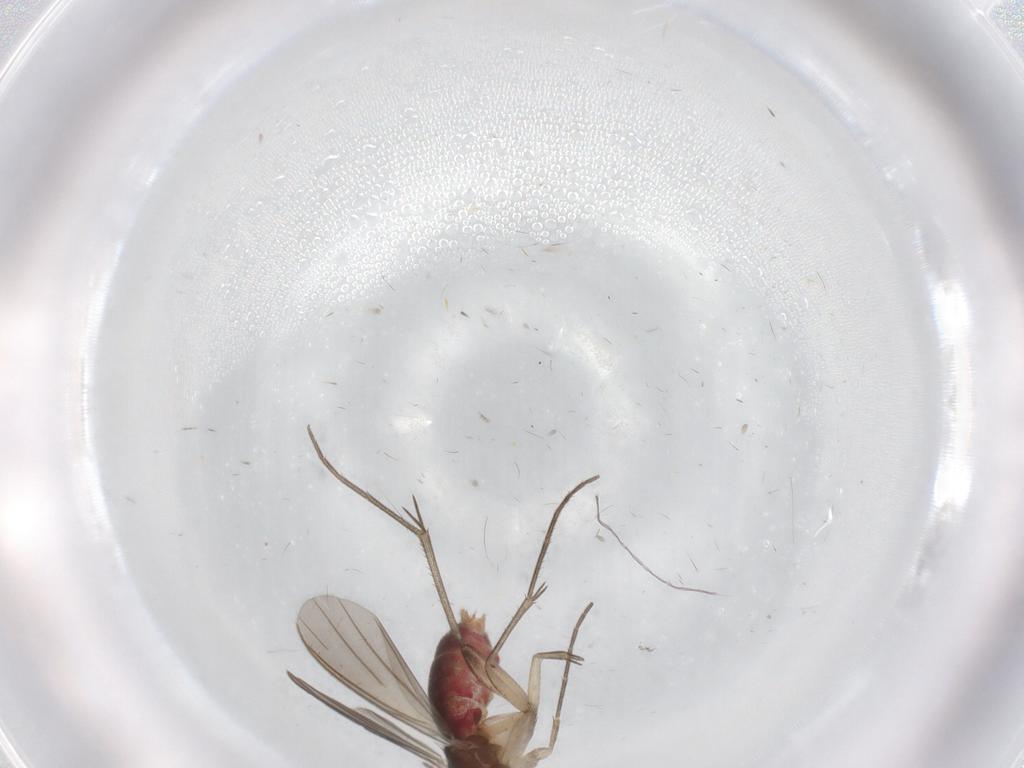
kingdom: Animalia
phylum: Arthropoda
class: Insecta
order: Diptera
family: Mycetophilidae
